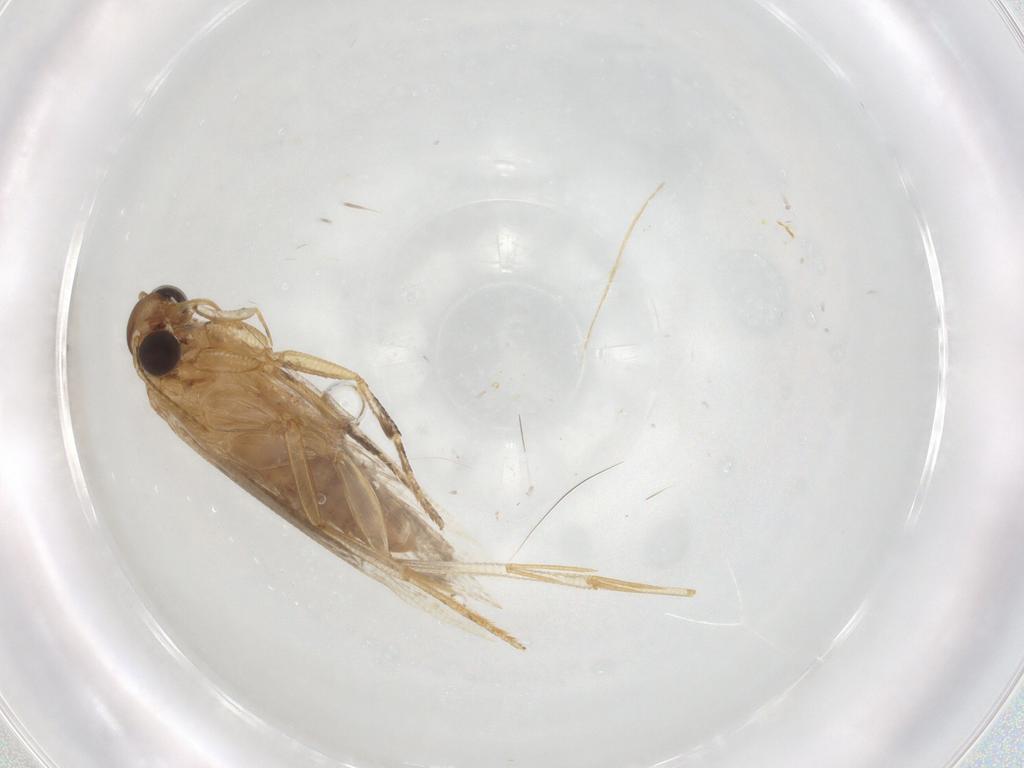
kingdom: Animalia
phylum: Arthropoda
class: Insecta
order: Lepidoptera
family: Gelechiidae
